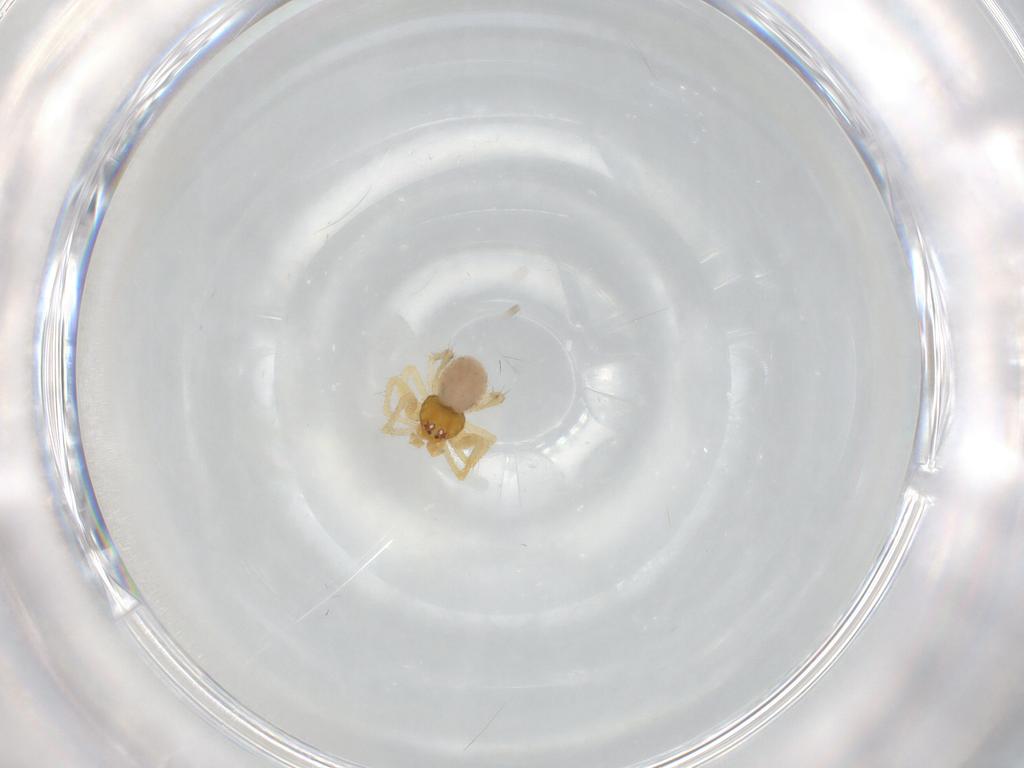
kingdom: Animalia
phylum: Arthropoda
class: Arachnida
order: Araneae
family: Theridiidae
